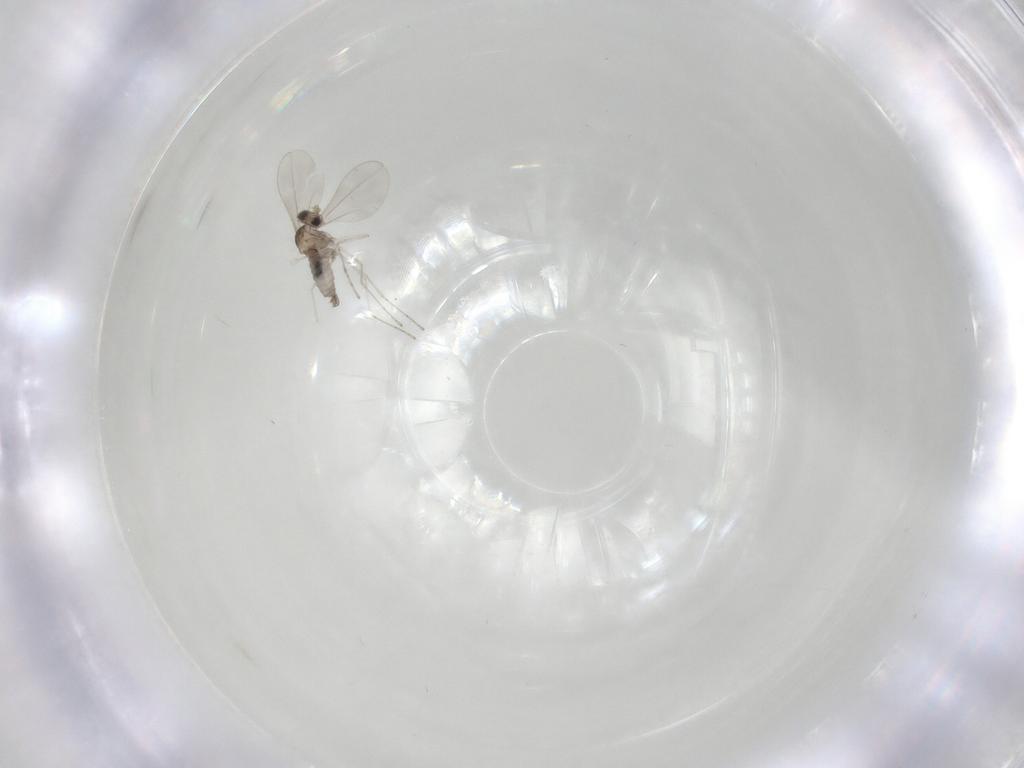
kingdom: Animalia
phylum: Arthropoda
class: Insecta
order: Diptera
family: Cecidomyiidae
